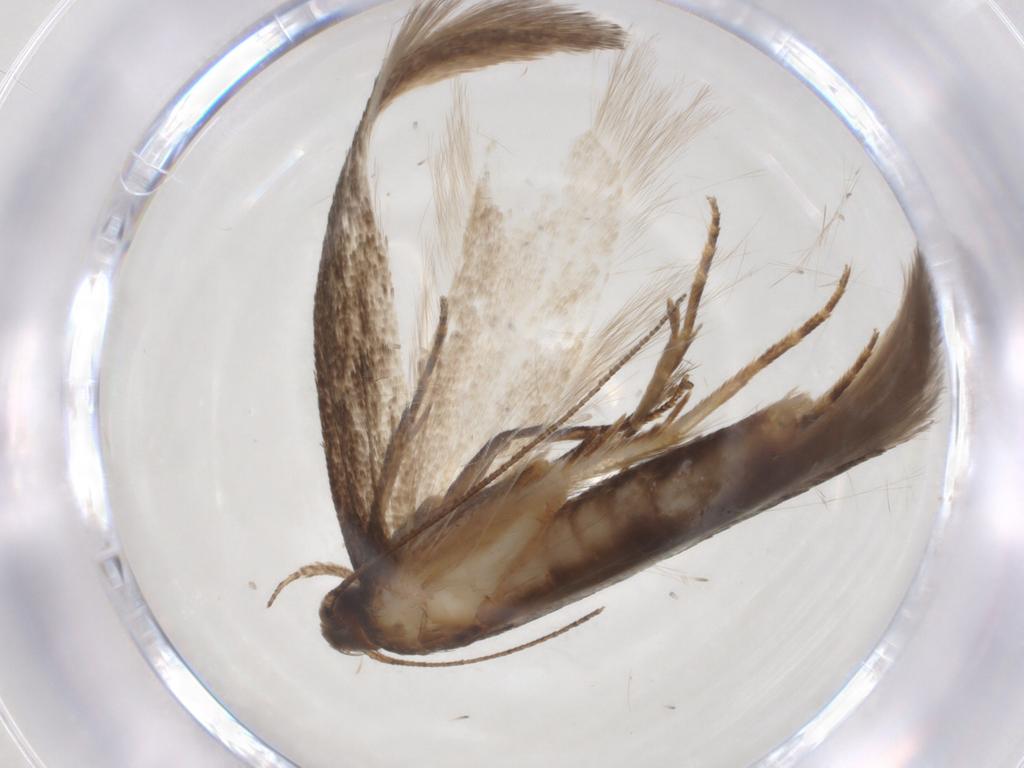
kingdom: Animalia
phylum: Arthropoda
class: Insecta
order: Lepidoptera
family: Gelechiidae
